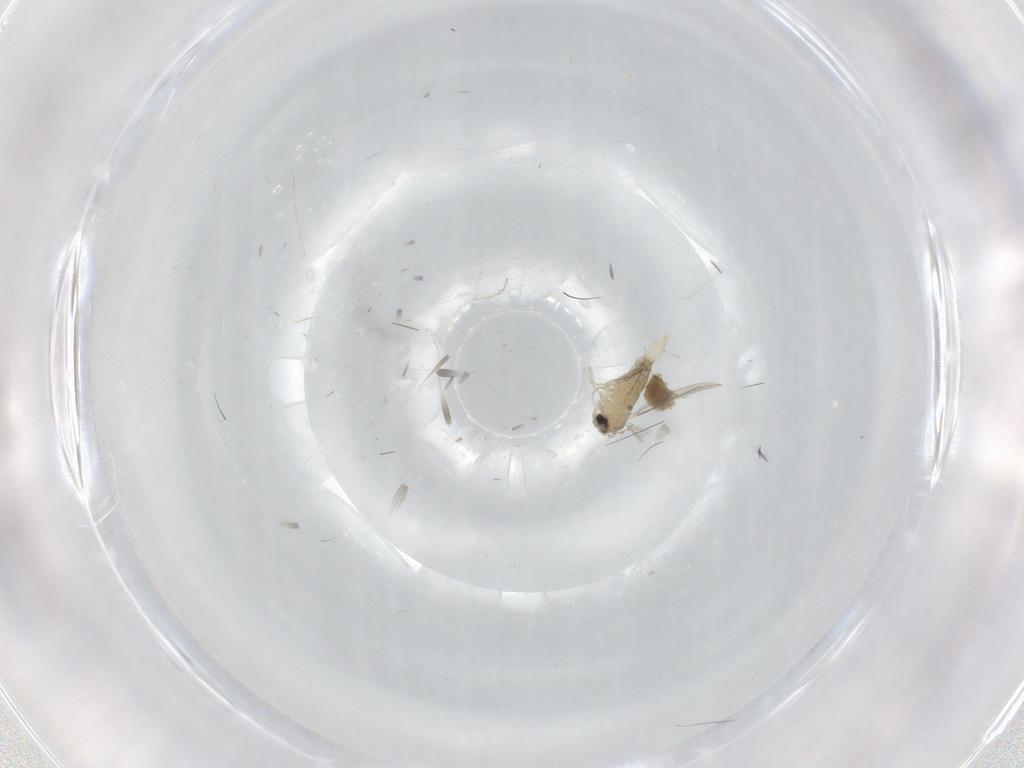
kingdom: Animalia
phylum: Arthropoda
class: Insecta
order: Diptera
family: Cecidomyiidae
